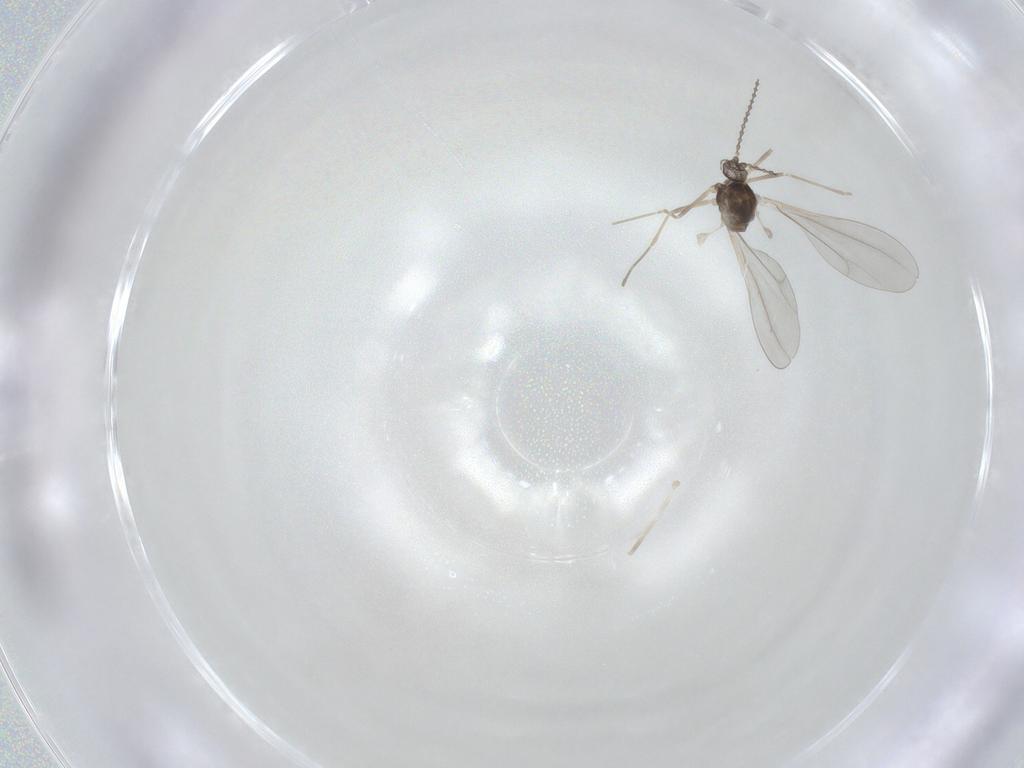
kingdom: Animalia
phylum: Arthropoda
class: Insecta
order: Diptera
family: Cecidomyiidae
